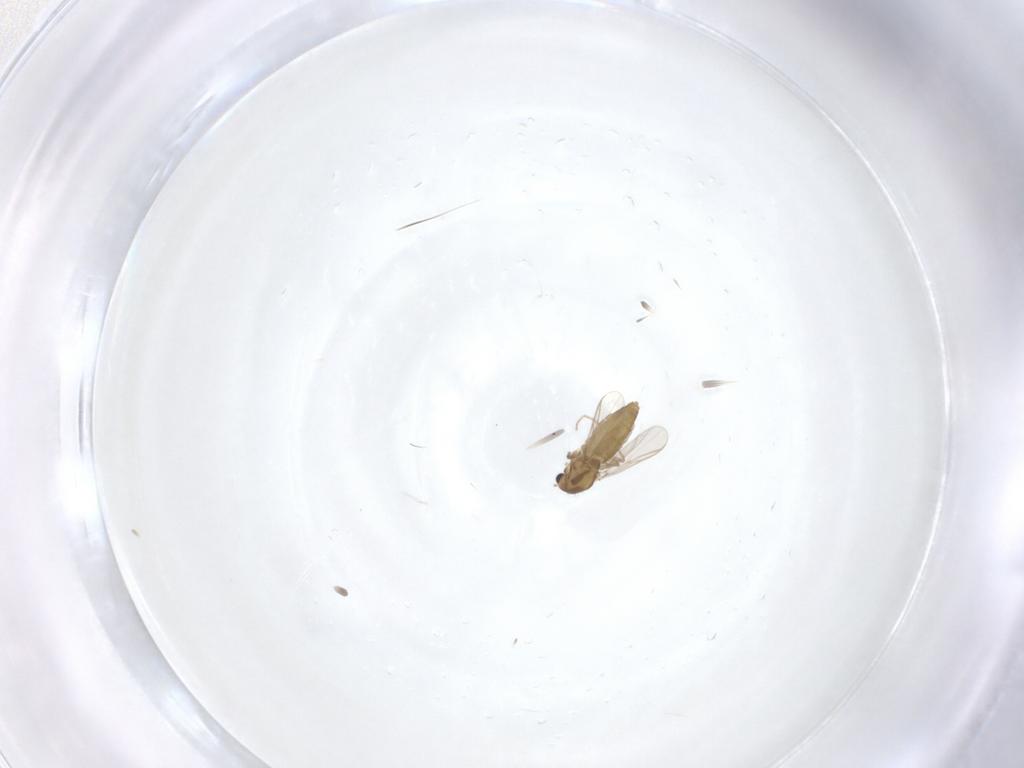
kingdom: Animalia
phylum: Arthropoda
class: Insecta
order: Diptera
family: Chironomidae
